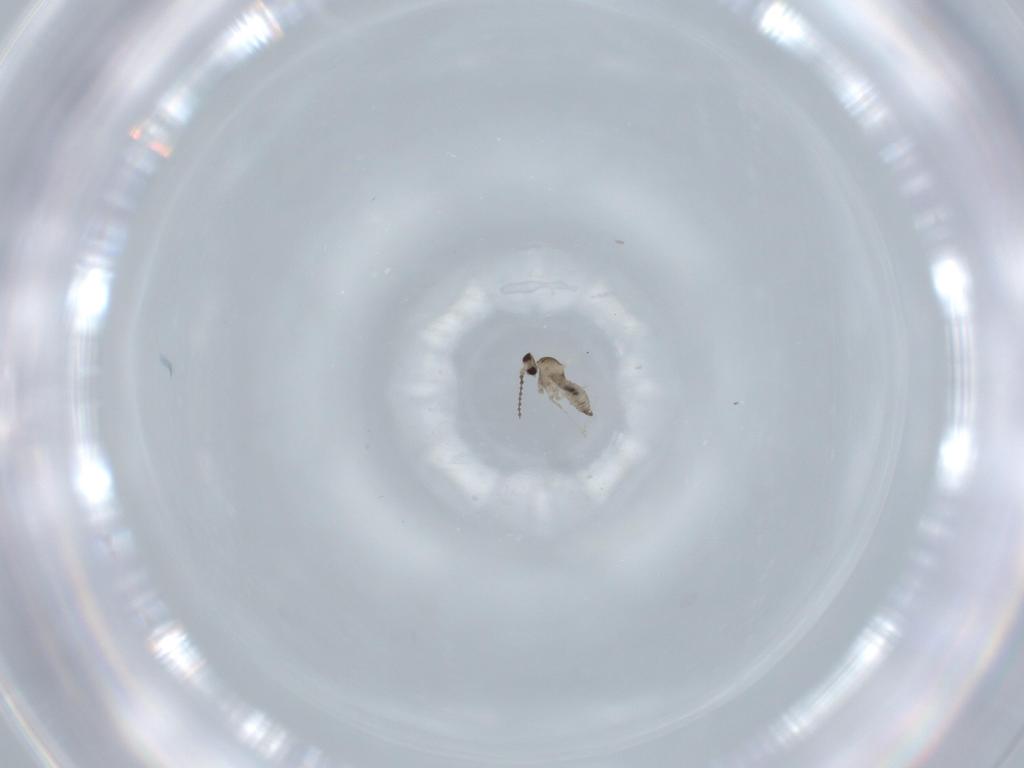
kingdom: Animalia
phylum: Arthropoda
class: Insecta
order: Diptera
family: Cecidomyiidae
